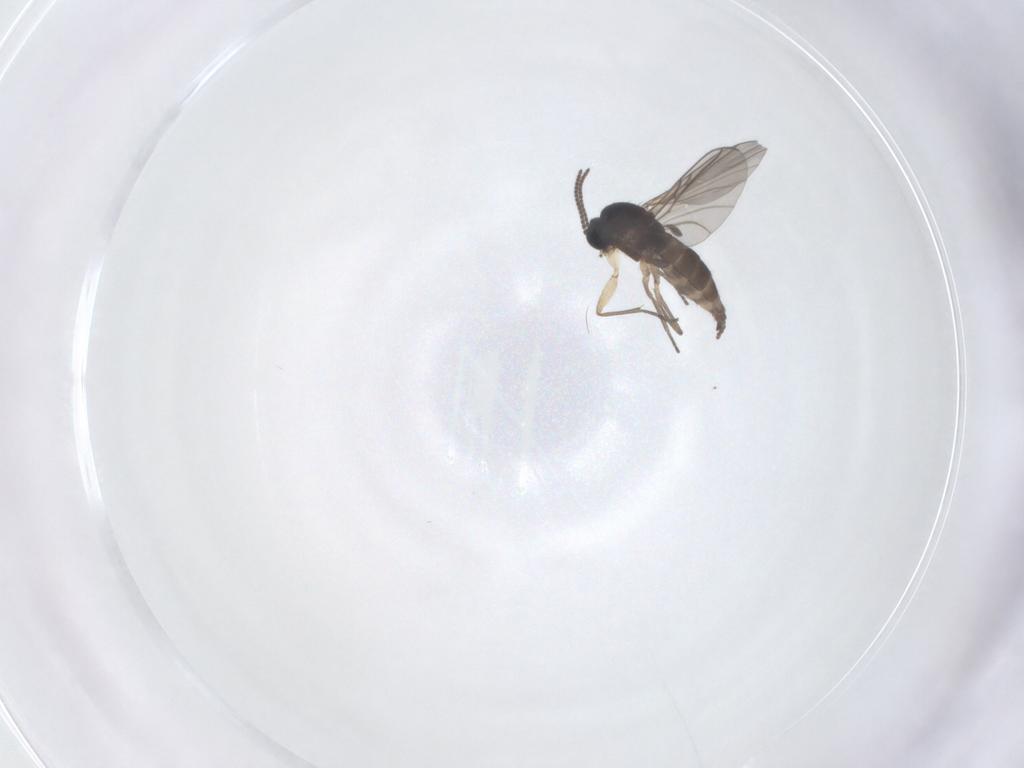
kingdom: Animalia
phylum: Arthropoda
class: Insecta
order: Diptera
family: Sciaridae
